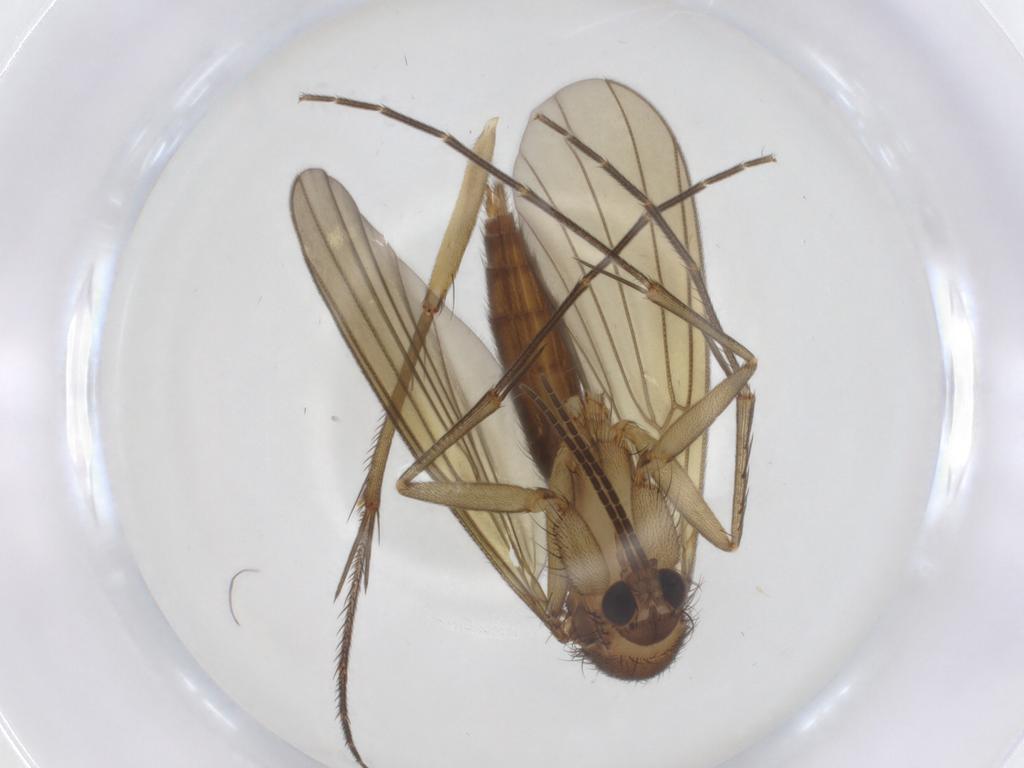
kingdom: Animalia
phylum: Arthropoda
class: Insecta
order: Diptera
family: Mycetophilidae
